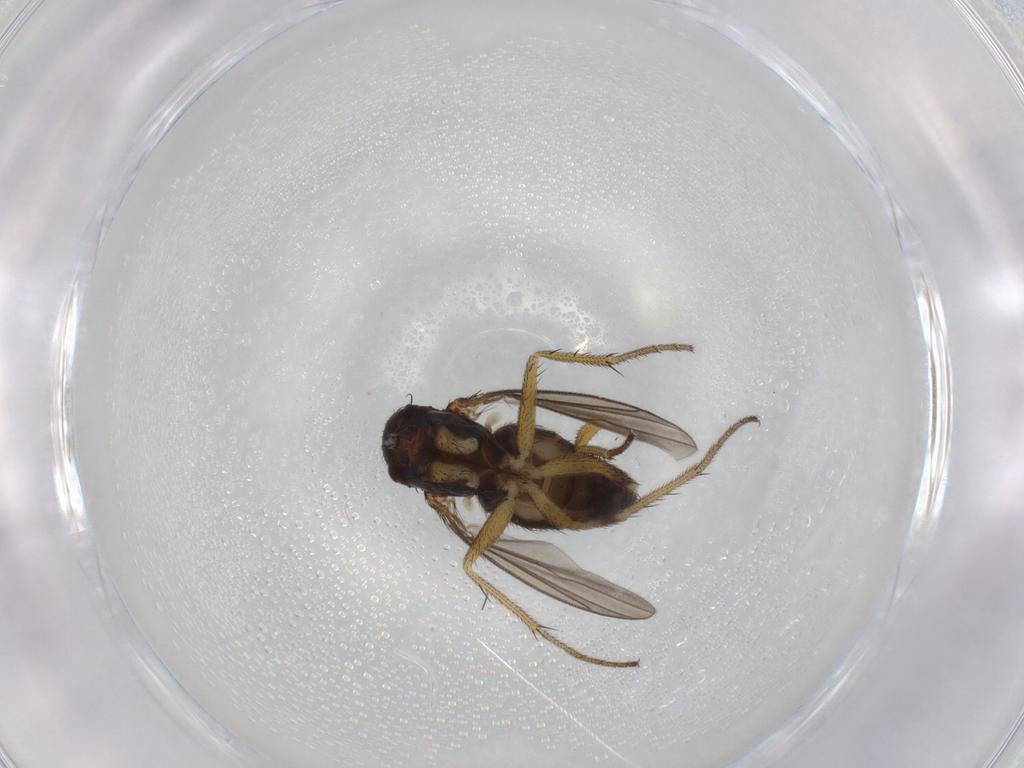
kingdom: Animalia
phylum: Arthropoda
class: Insecta
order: Diptera
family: Dolichopodidae
